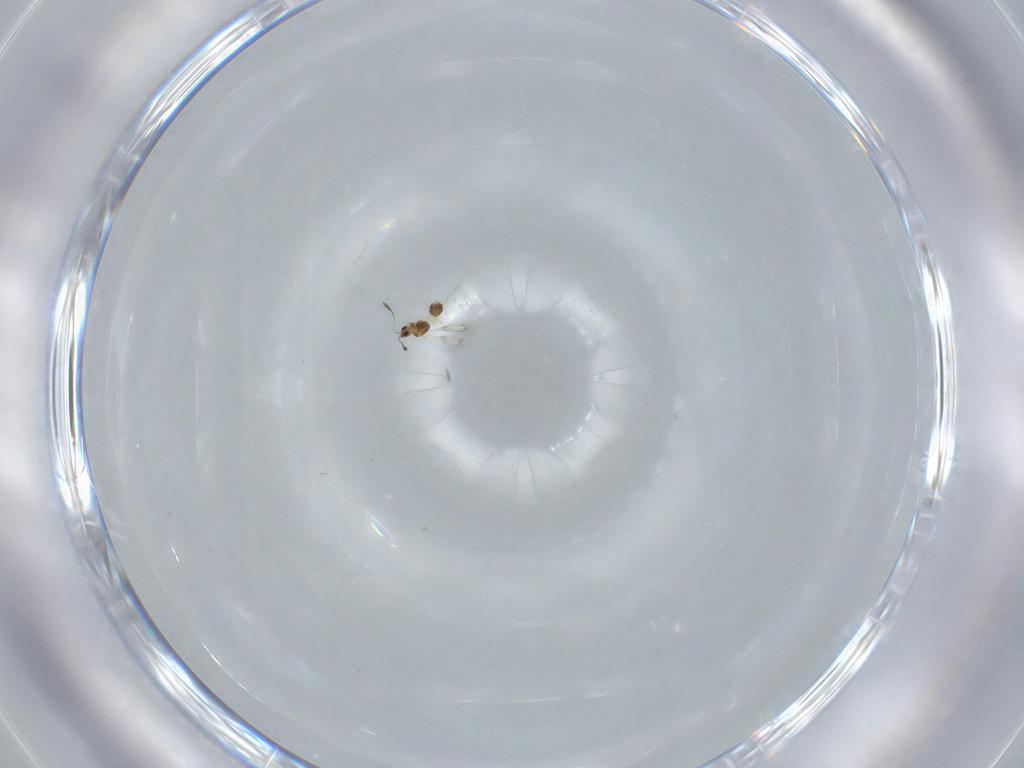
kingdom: Animalia
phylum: Arthropoda
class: Insecta
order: Hymenoptera
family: Mymarommatidae
